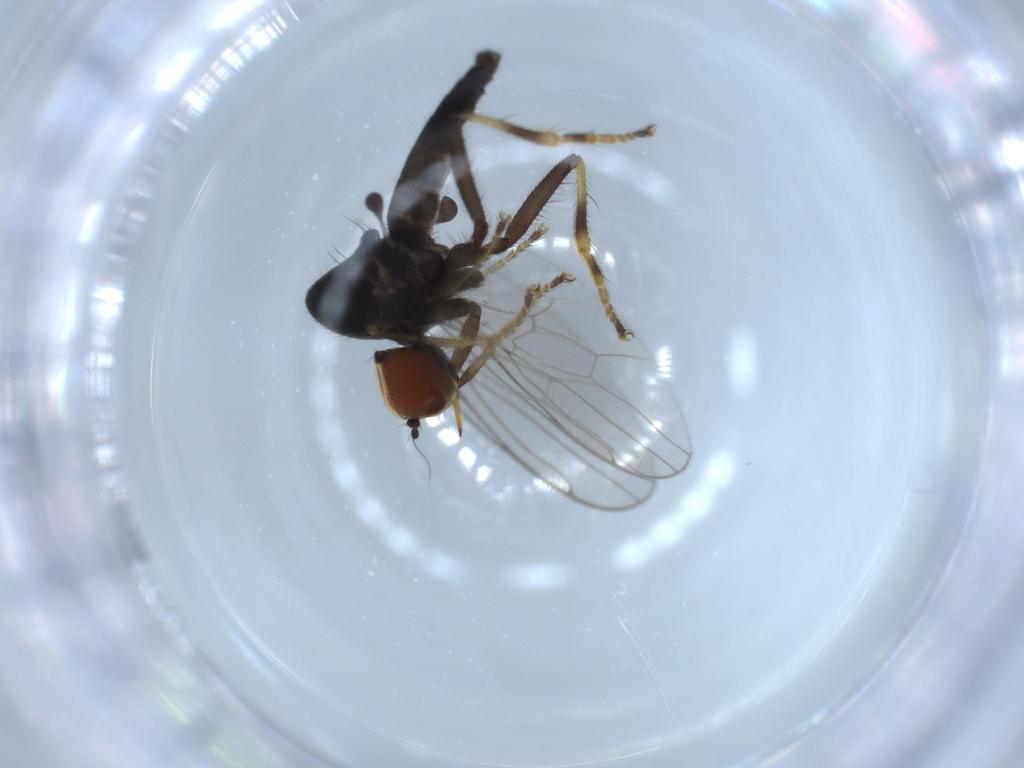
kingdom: Animalia
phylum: Arthropoda
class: Insecta
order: Diptera
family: Hybotidae
